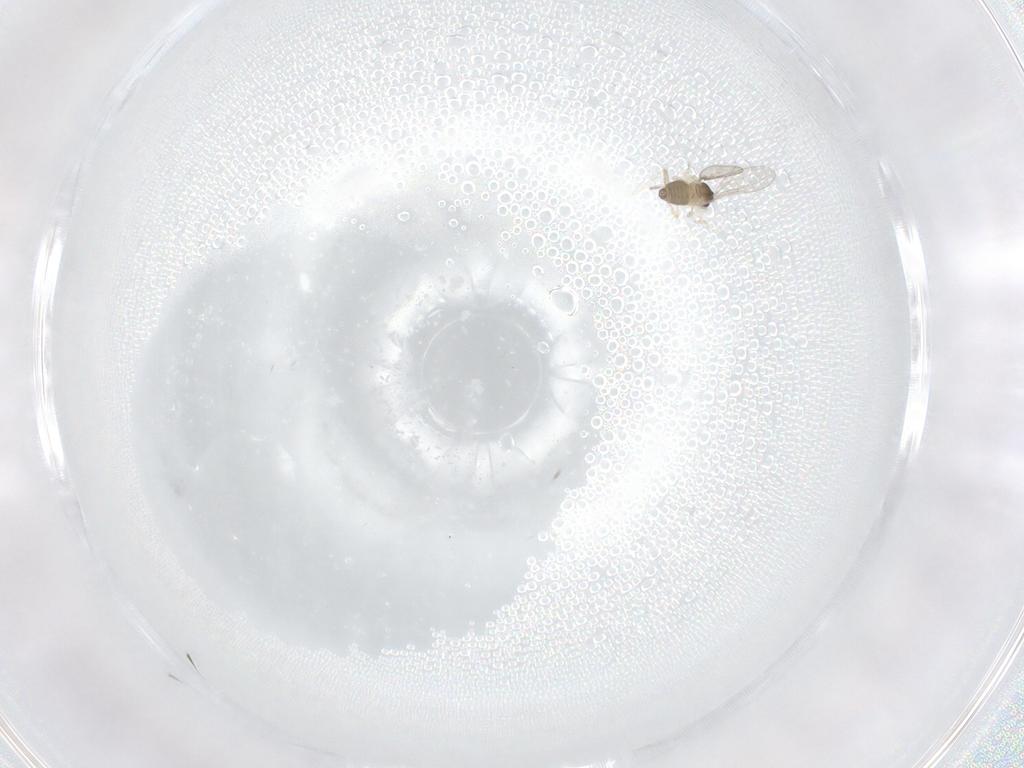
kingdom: Animalia
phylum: Arthropoda
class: Insecta
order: Diptera
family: Cecidomyiidae
